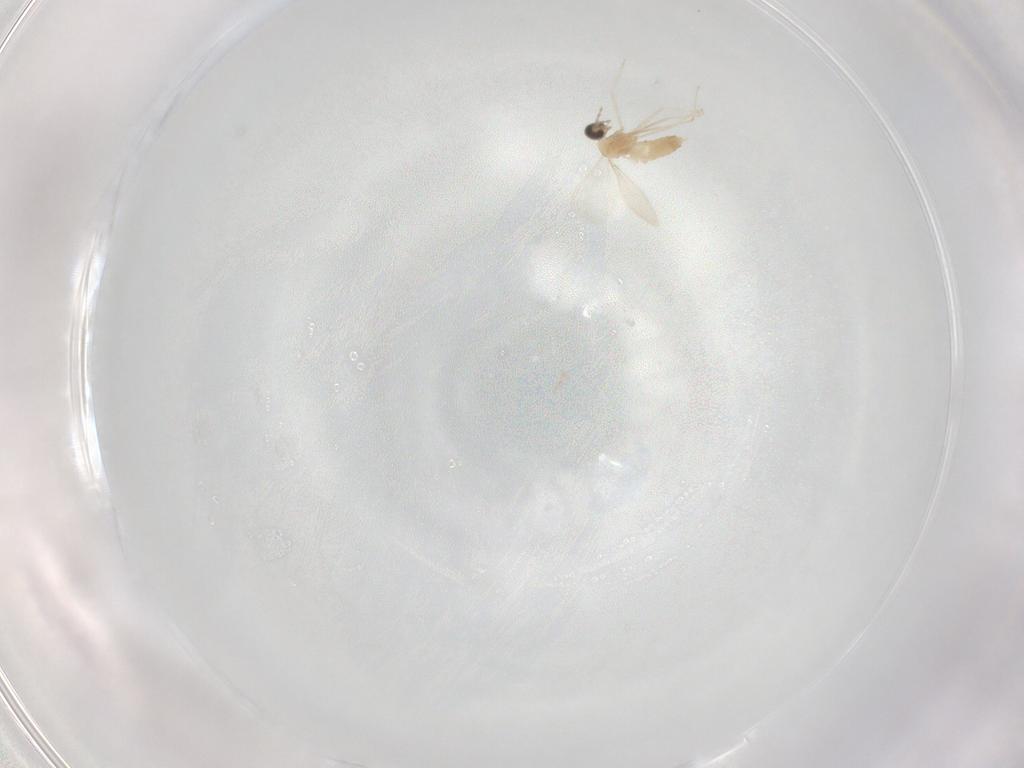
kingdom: Animalia
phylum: Arthropoda
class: Insecta
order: Diptera
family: Cecidomyiidae
